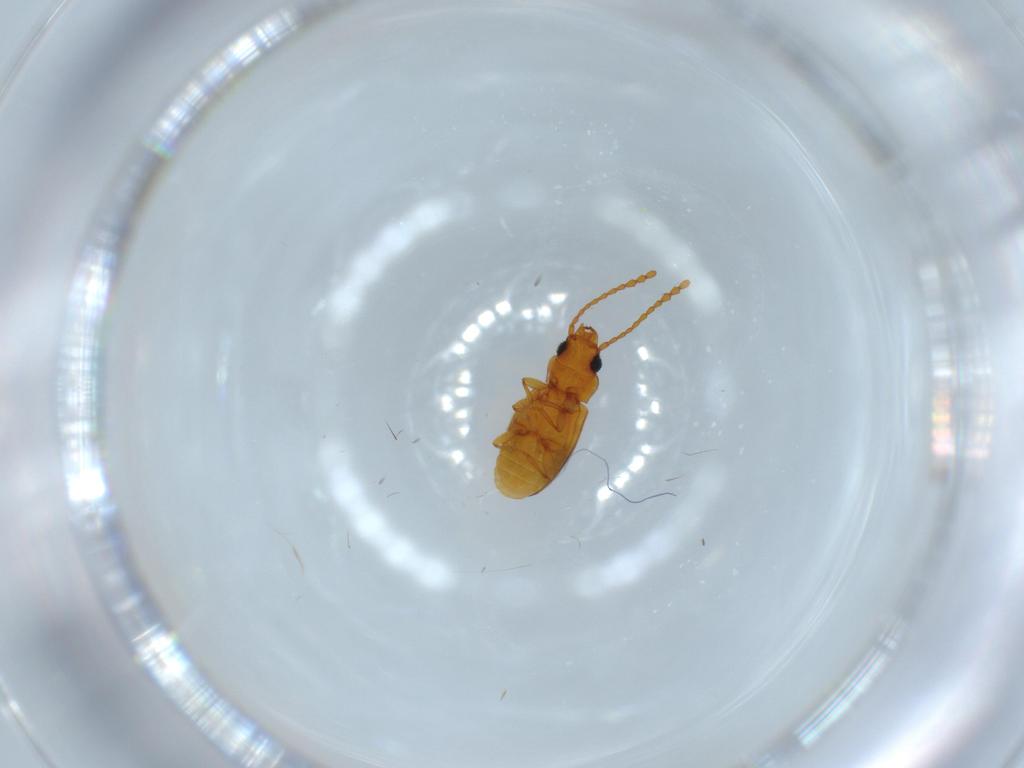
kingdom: Animalia
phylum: Arthropoda
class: Insecta
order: Coleoptera
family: Laemophloeidae
